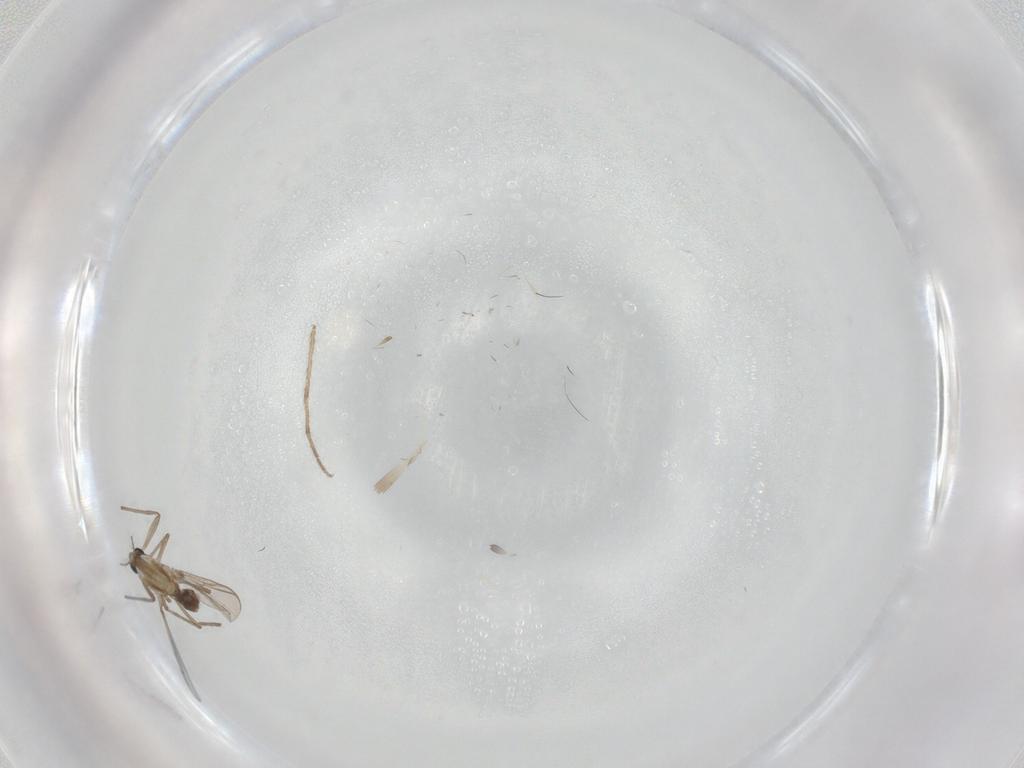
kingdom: Animalia
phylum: Arthropoda
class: Insecta
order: Diptera
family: Chironomidae
